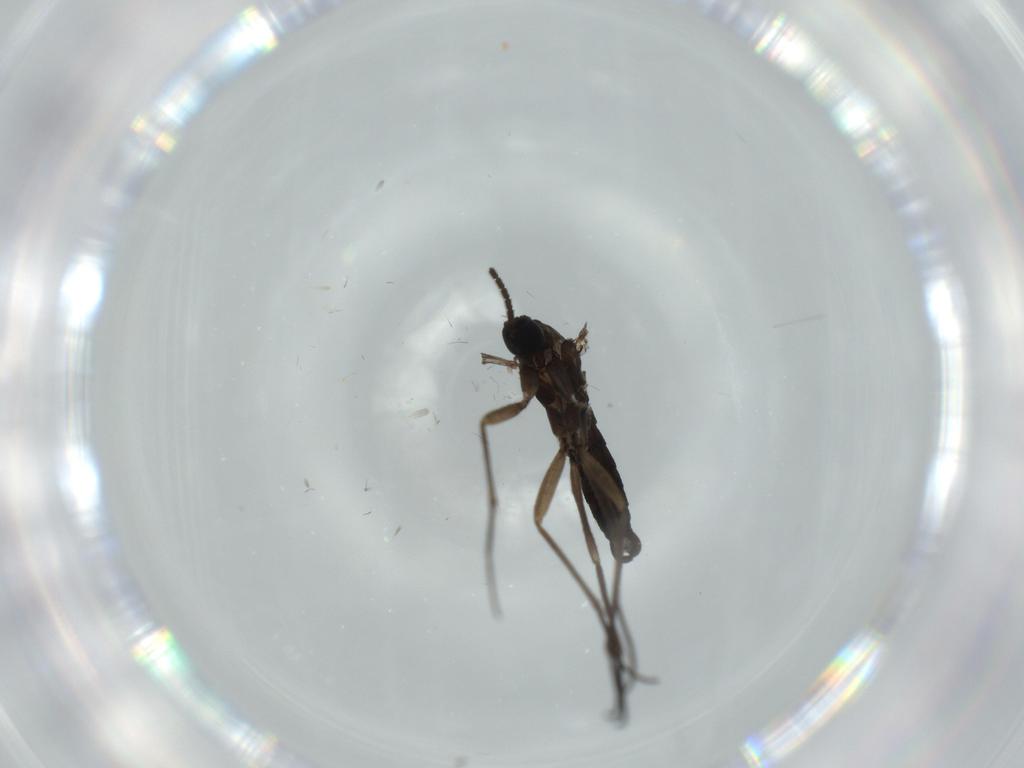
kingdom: Animalia
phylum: Arthropoda
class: Insecta
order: Diptera
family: Sciaridae
